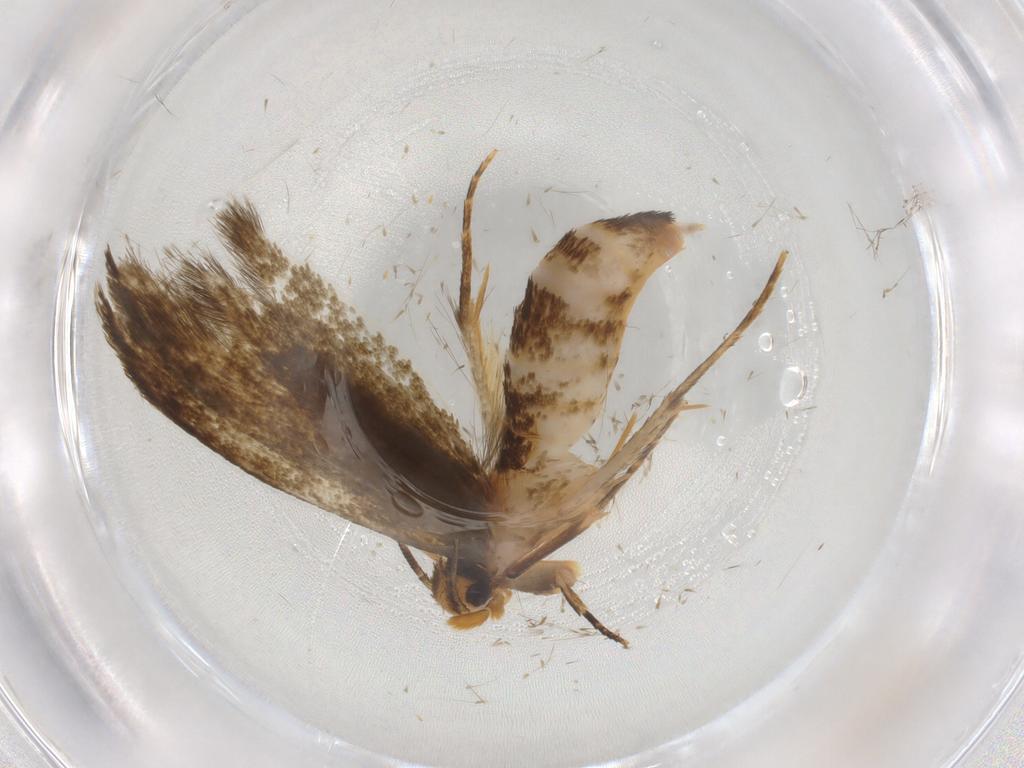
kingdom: Animalia
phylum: Arthropoda
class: Insecta
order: Lepidoptera
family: Tineidae
